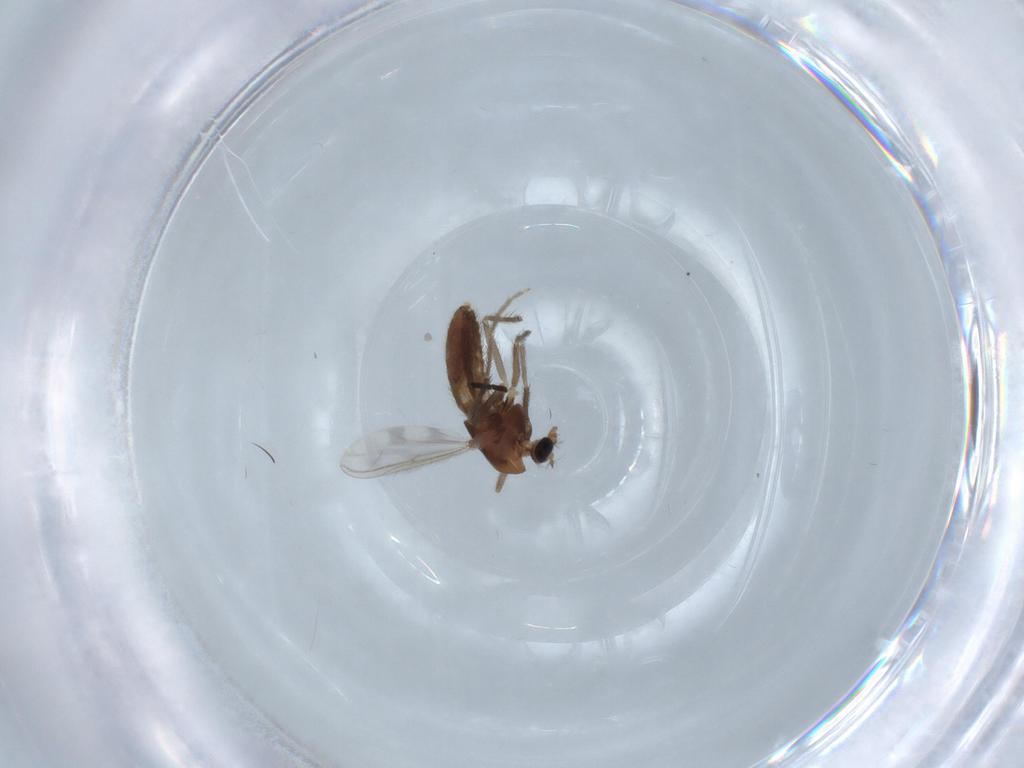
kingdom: Animalia
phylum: Arthropoda
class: Insecta
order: Diptera
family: Chironomidae
